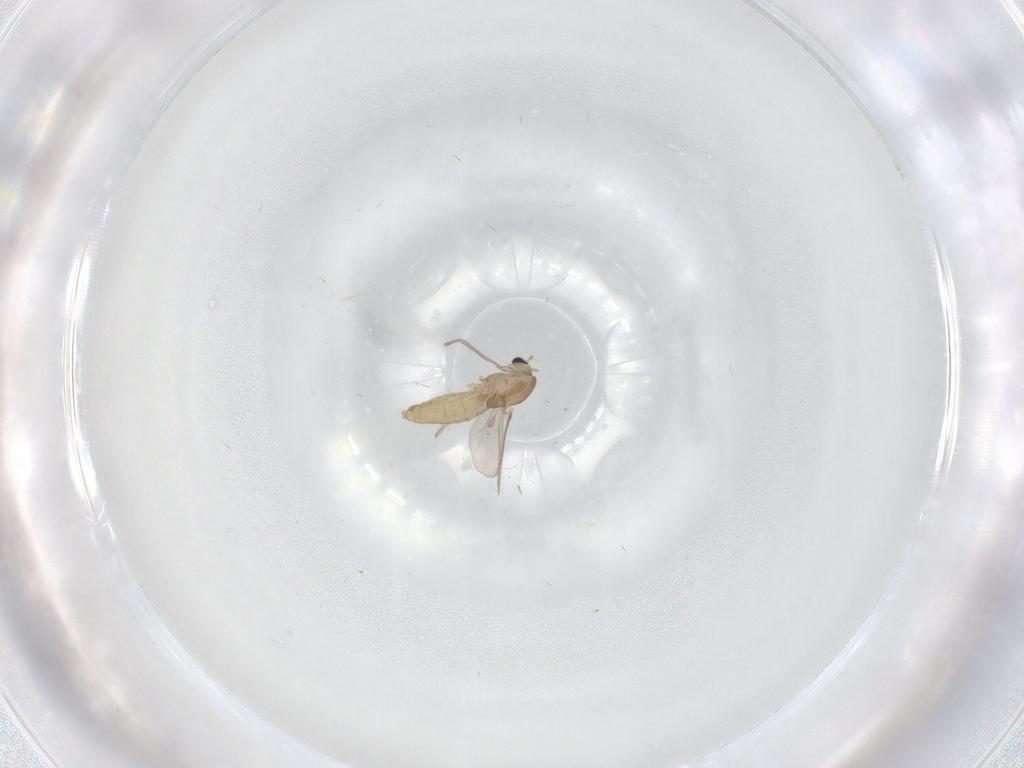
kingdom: Animalia
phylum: Arthropoda
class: Insecta
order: Diptera
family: Chironomidae
